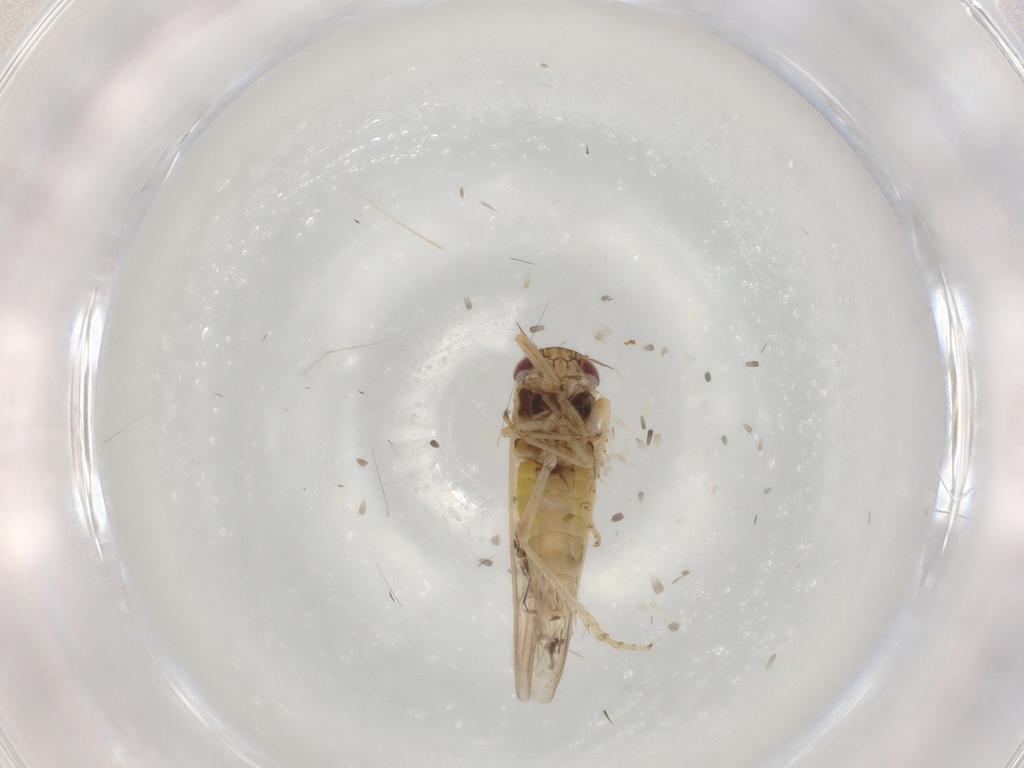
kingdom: Animalia
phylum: Arthropoda
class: Insecta
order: Hemiptera
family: Cicadellidae
